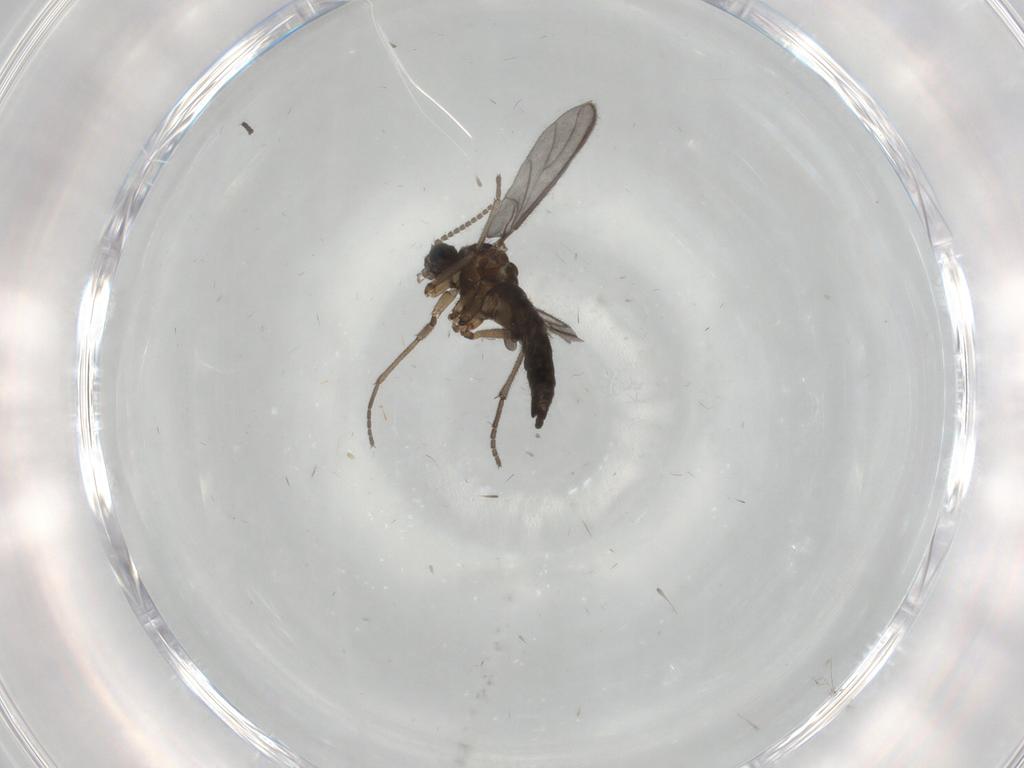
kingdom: Animalia
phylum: Arthropoda
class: Insecta
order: Diptera
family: Sciaridae
